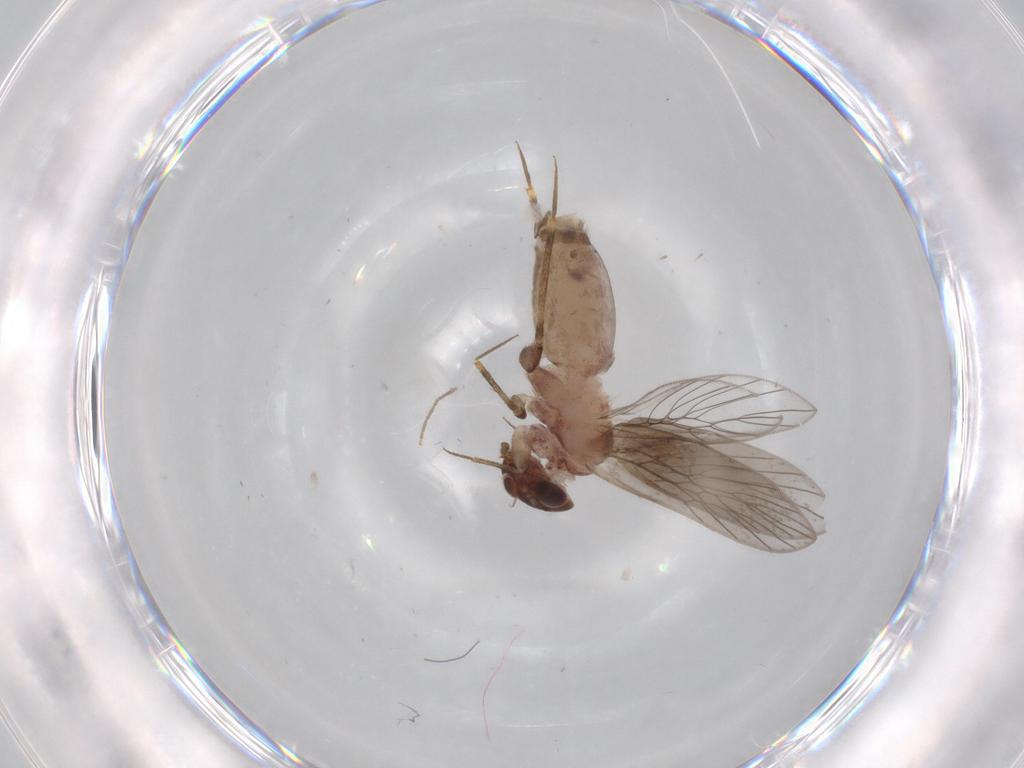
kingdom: Animalia
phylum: Arthropoda
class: Insecta
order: Psocodea
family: Lepidopsocidae
